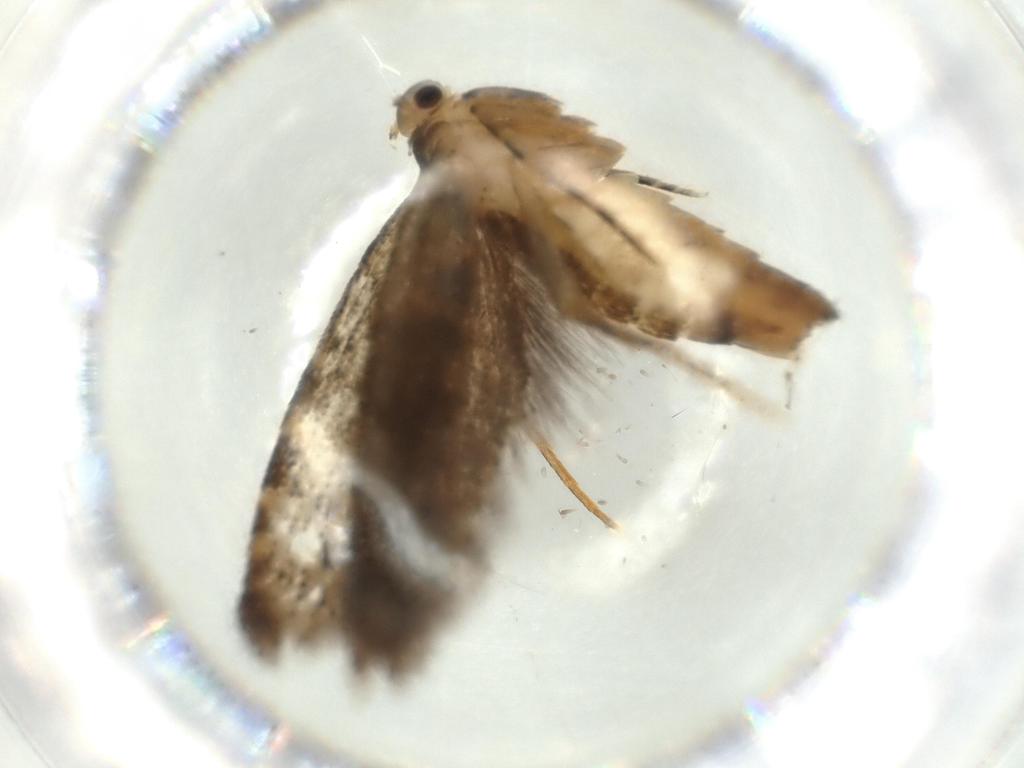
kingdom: Animalia
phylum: Arthropoda
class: Insecta
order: Lepidoptera
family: Tineidae
